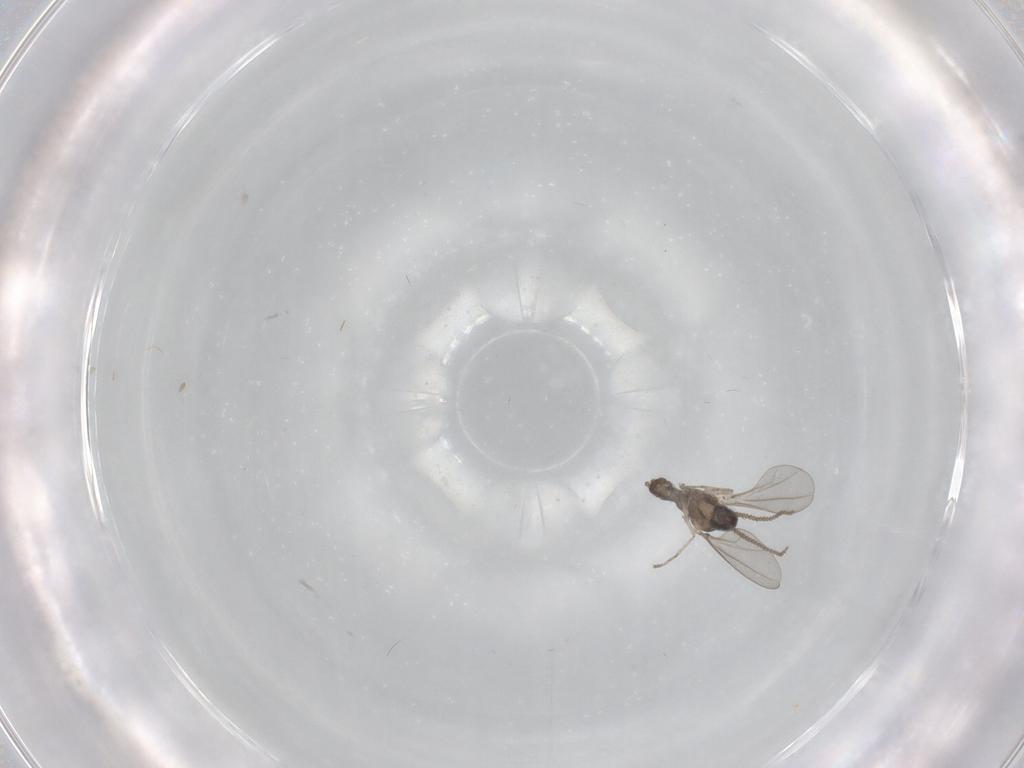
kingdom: Animalia
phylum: Arthropoda
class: Insecta
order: Diptera
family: Cecidomyiidae
